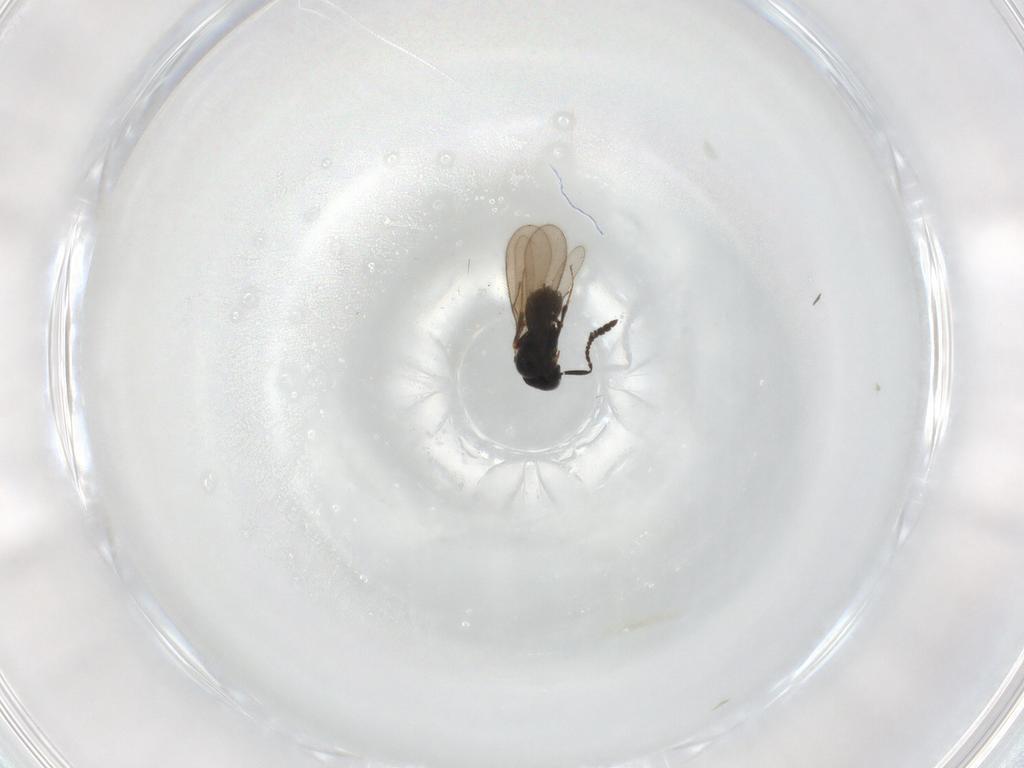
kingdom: Animalia
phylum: Arthropoda
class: Insecta
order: Hymenoptera
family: Scelionidae
